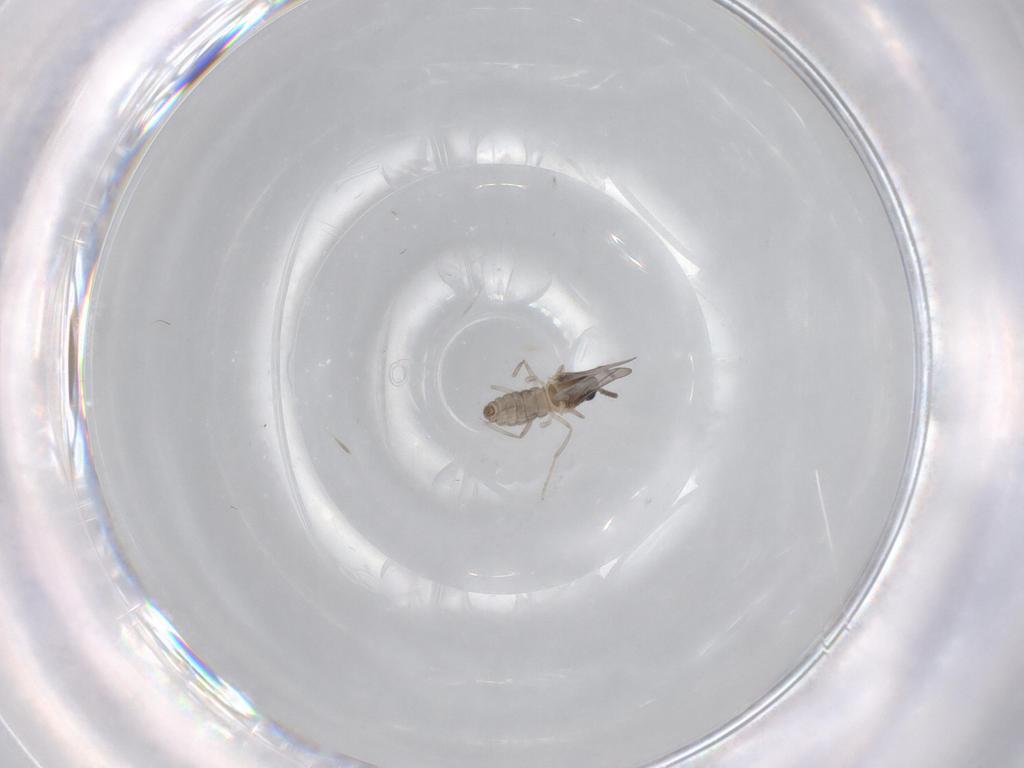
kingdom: Animalia
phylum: Arthropoda
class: Insecta
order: Diptera
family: Cecidomyiidae
